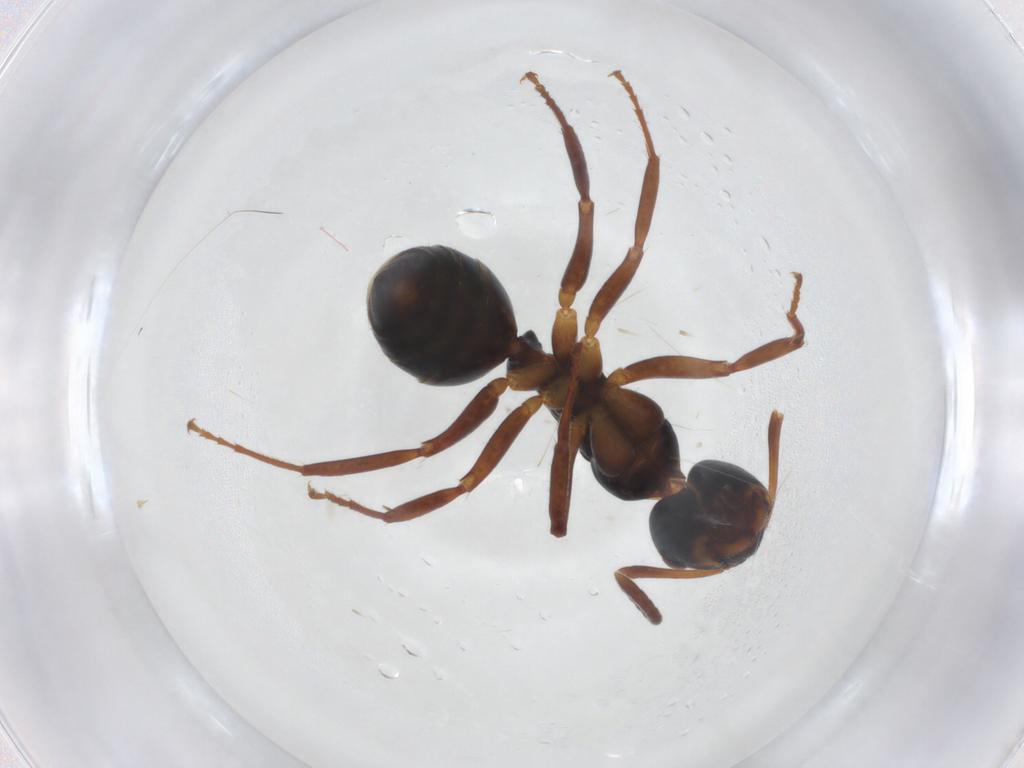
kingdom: Animalia
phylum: Arthropoda
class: Insecta
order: Hymenoptera
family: Formicidae
